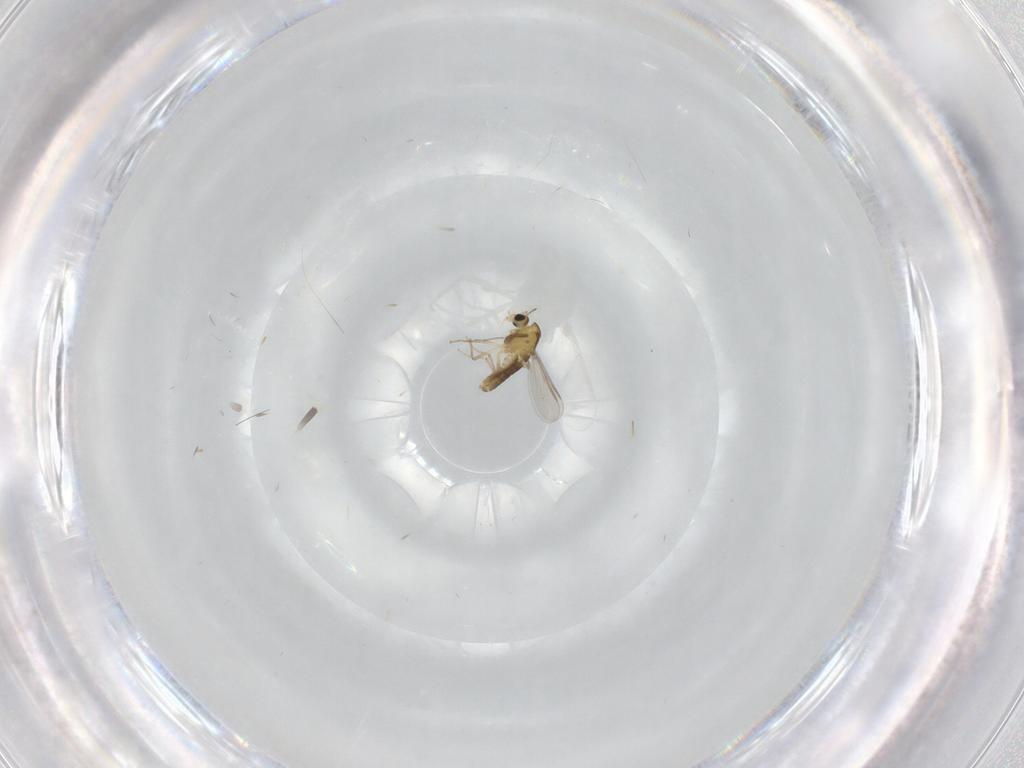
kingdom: Animalia
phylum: Arthropoda
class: Insecta
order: Diptera
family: Chironomidae
